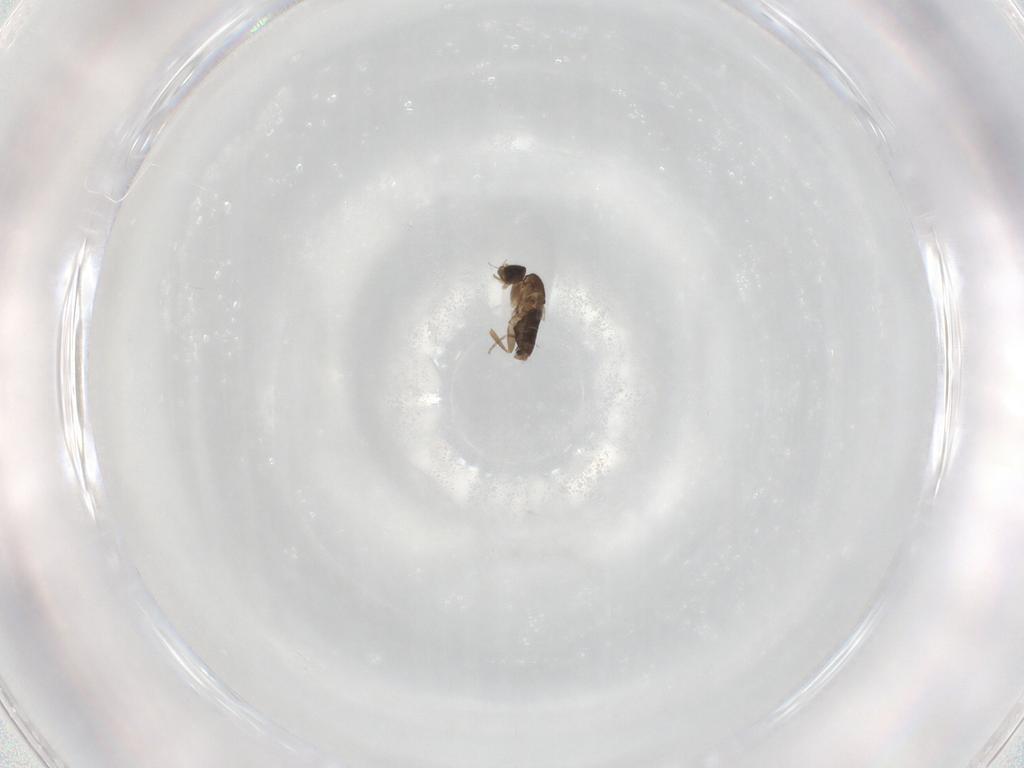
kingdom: Animalia
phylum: Arthropoda
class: Insecta
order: Diptera
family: Phoridae
